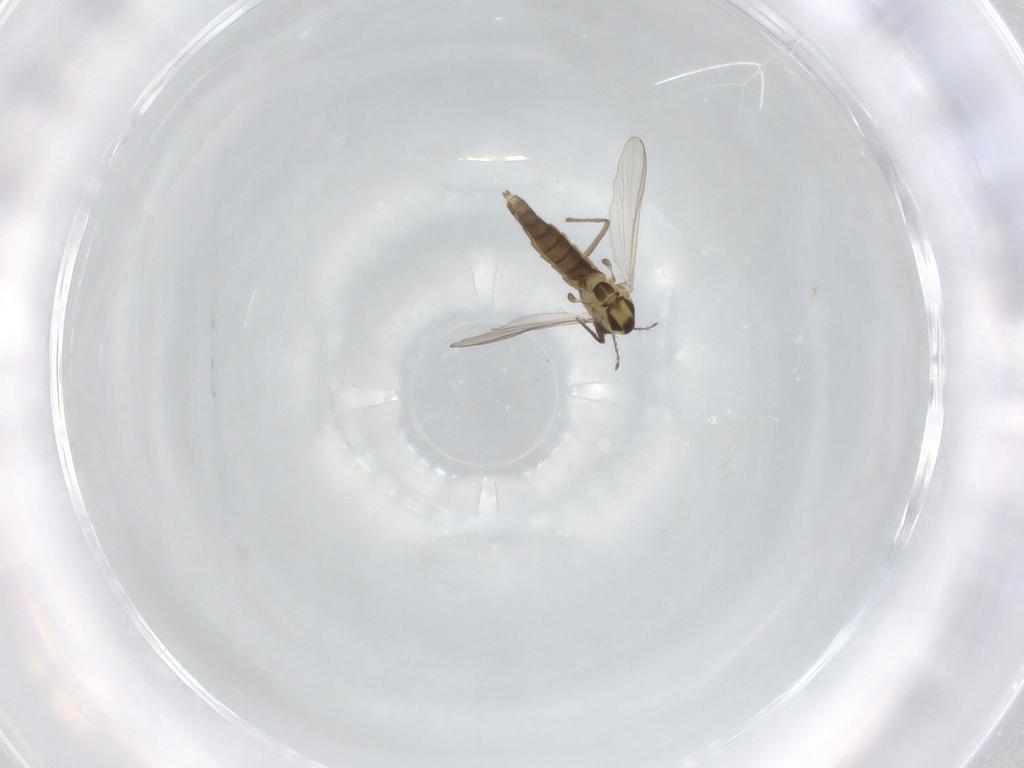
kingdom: Animalia
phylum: Arthropoda
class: Insecta
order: Diptera
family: Chironomidae
